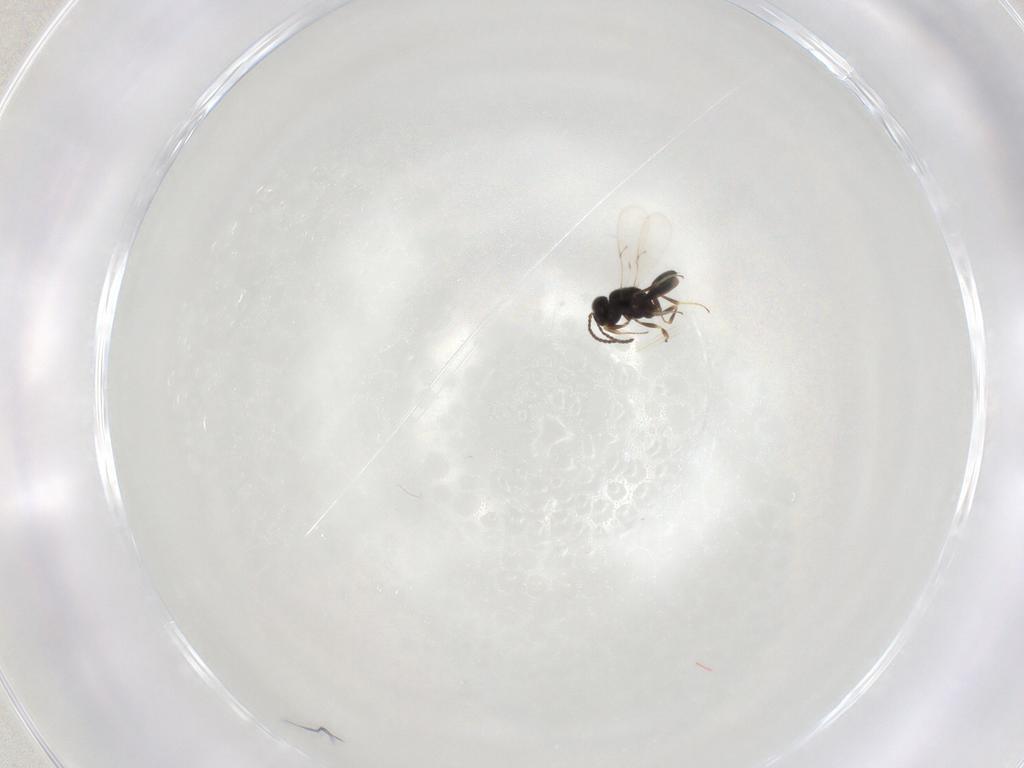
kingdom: Animalia
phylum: Arthropoda
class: Insecta
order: Hymenoptera
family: Scelionidae
